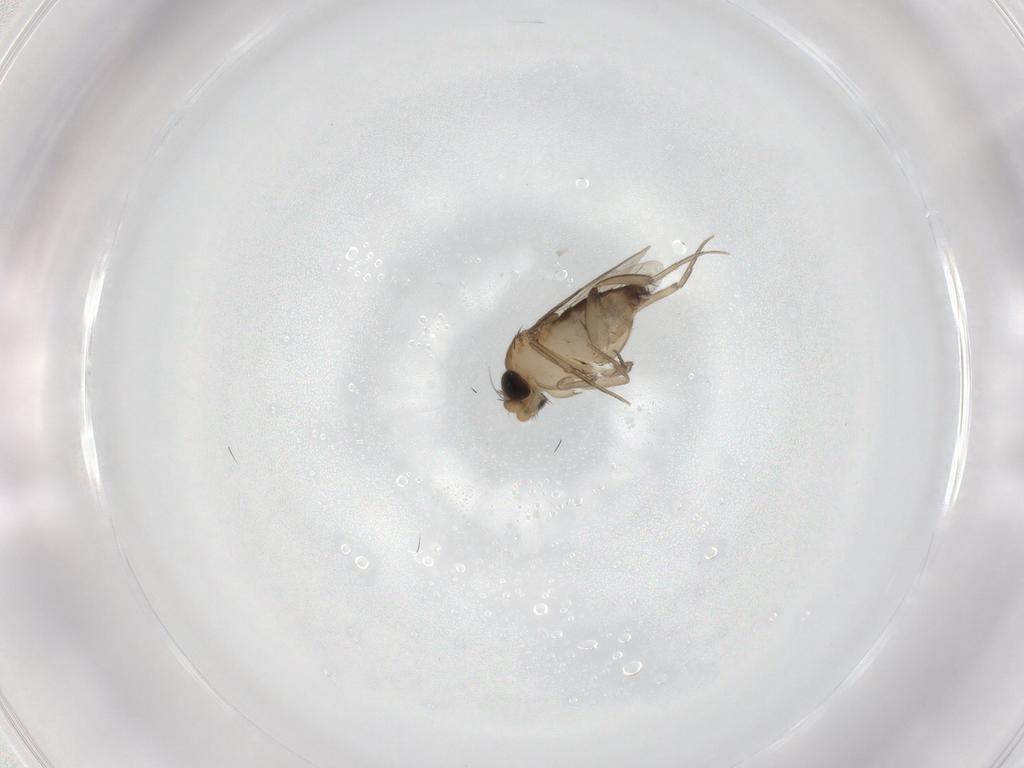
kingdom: Animalia
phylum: Arthropoda
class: Insecta
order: Diptera
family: Phoridae
